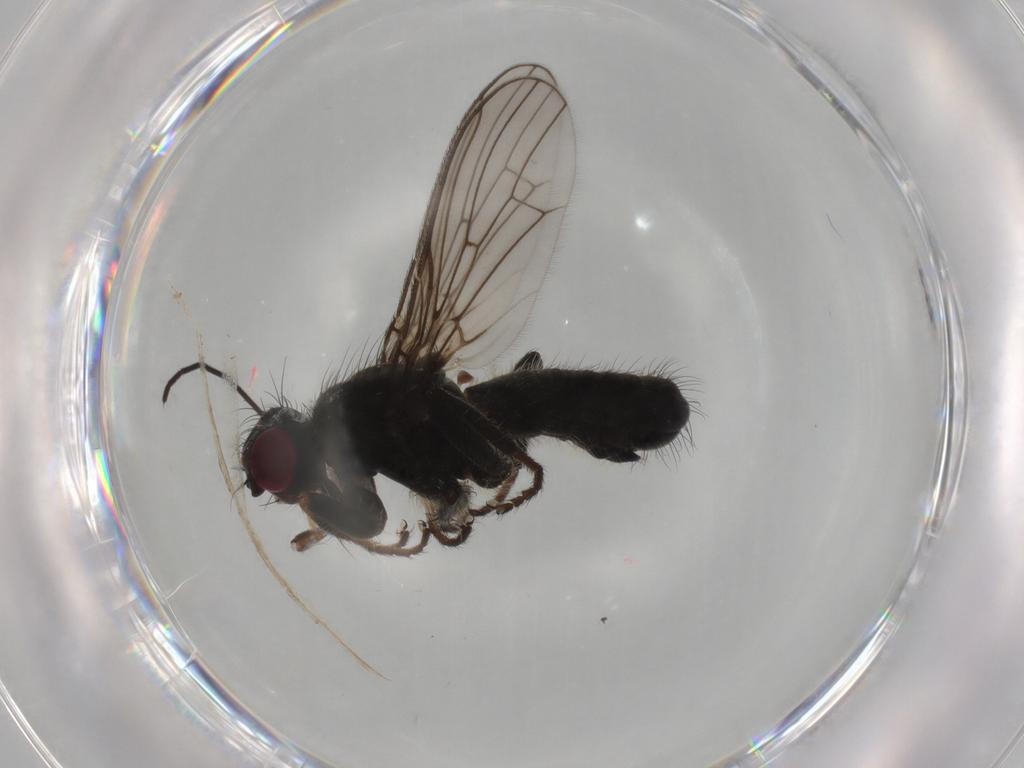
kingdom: Animalia
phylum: Arthropoda
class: Insecta
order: Diptera
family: Scathophagidae
